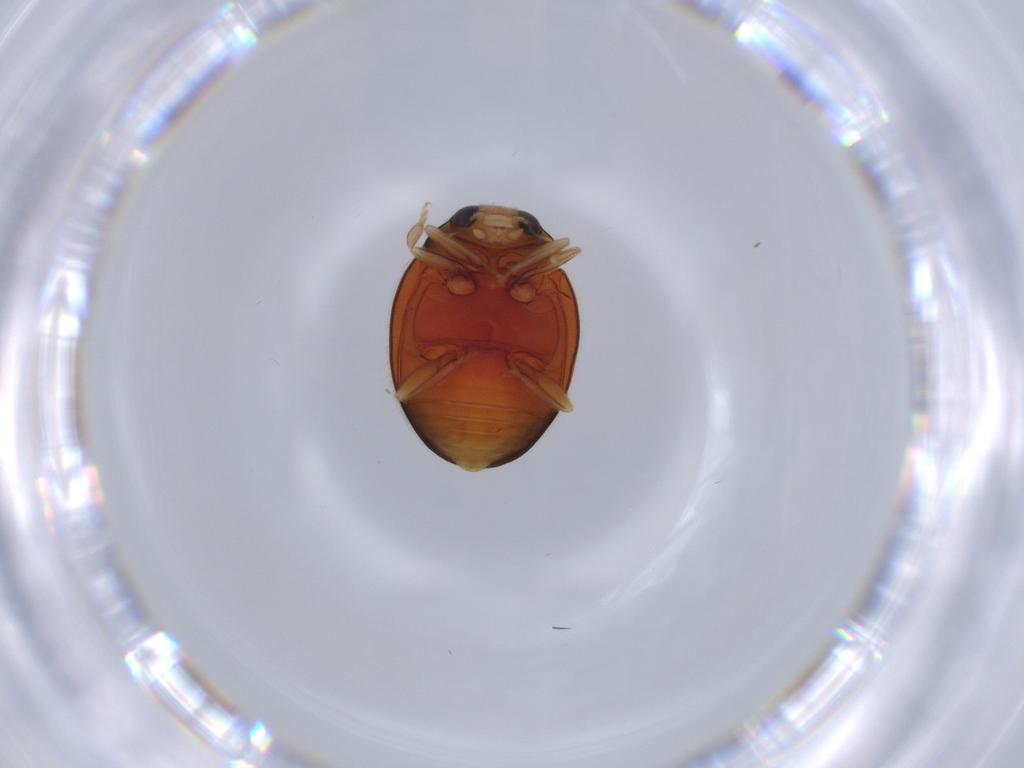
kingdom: Animalia
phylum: Arthropoda
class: Insecta
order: Coleoptera
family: Coccinellidae
